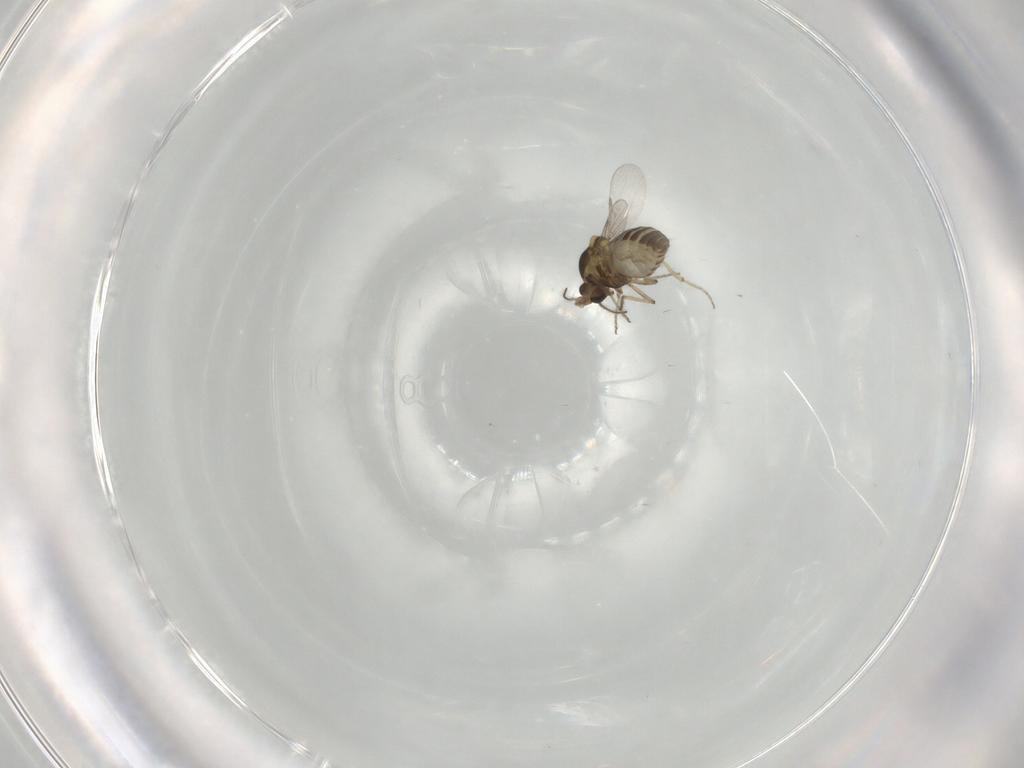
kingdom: Animalia
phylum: Arthropoda
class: Insecta
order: Diptera
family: Ceratopogonidae
